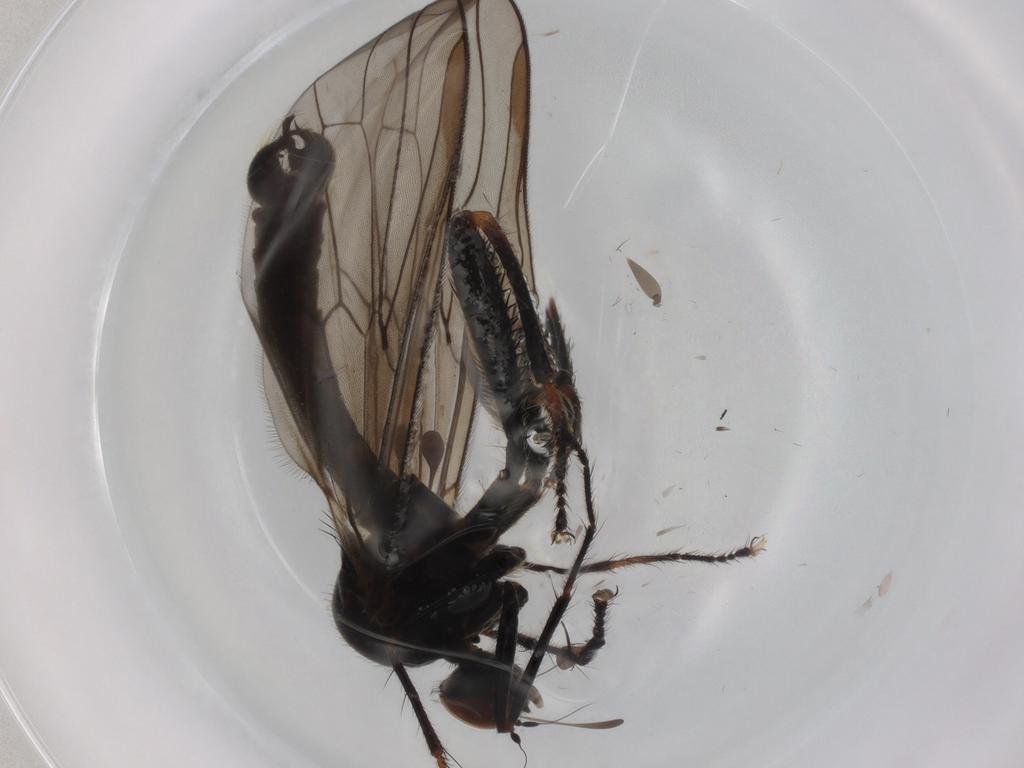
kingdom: Animalia
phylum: Arthropoda
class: Insecta
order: Diptera
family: Hybotidae
